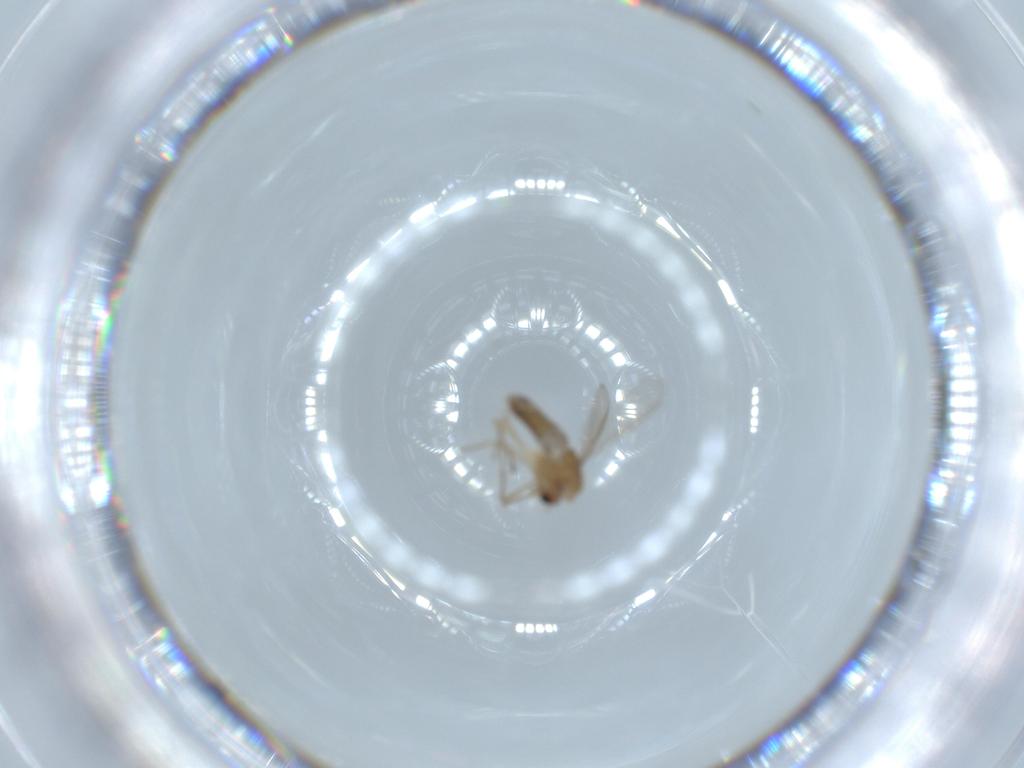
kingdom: Animalia
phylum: Arthropoda
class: Insecta
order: Diptera
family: Chironomidae
